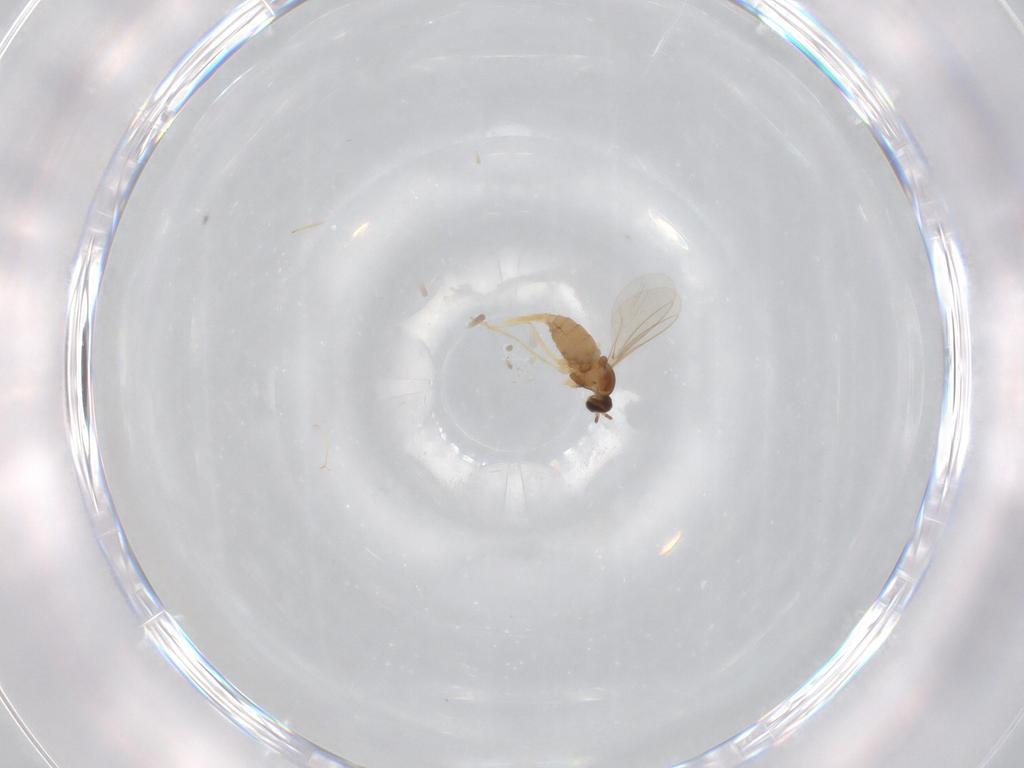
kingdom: Animalia
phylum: Arthropoda
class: Insecta
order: Diptera
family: Cecidomyiidae
